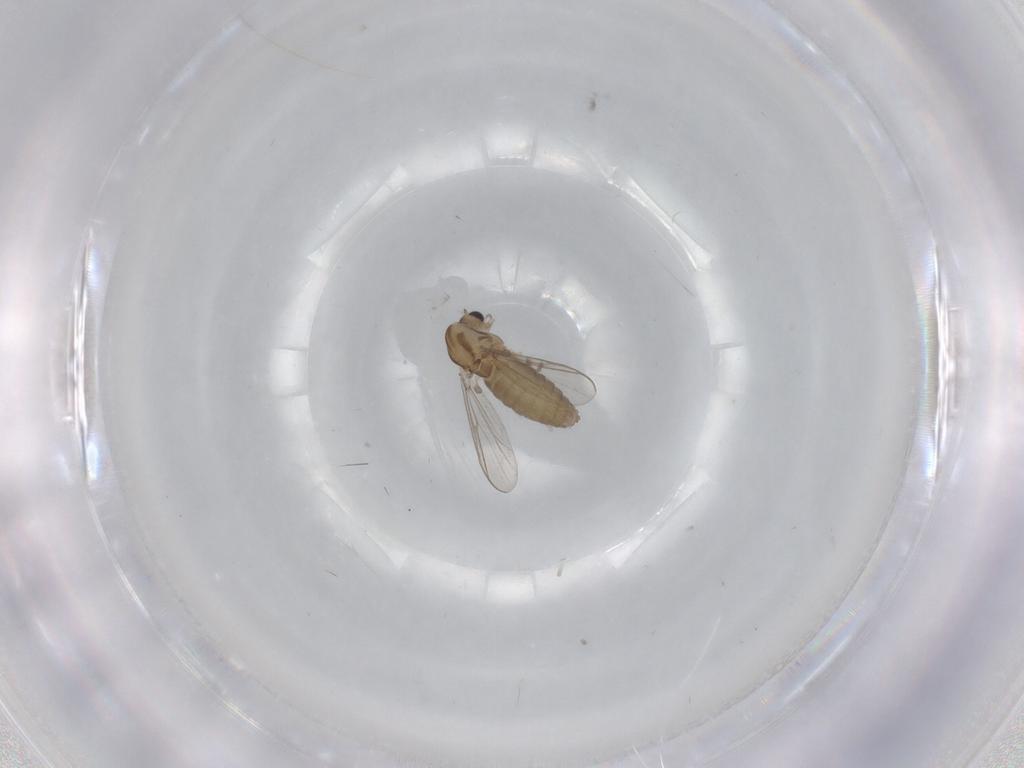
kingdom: Animalia
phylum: Arthropoda
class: Insecta
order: Diptera
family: Chironomidae
